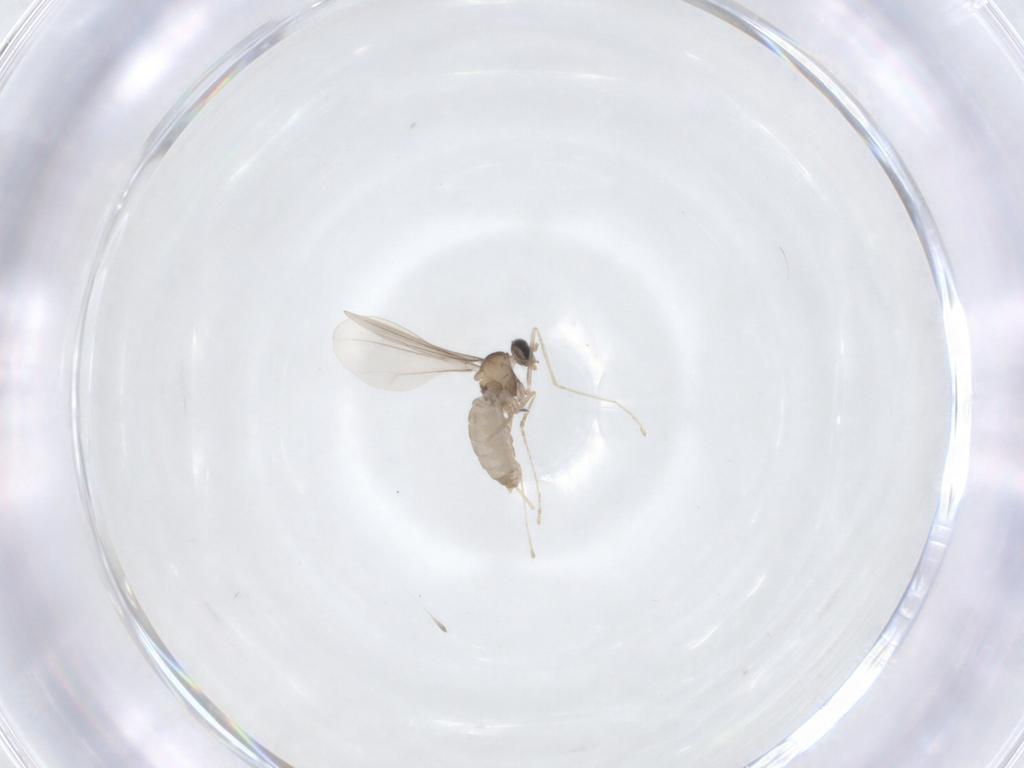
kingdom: Animalia
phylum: Arthropoda
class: Insecta
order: Diptera
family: Cecidomyiidae
